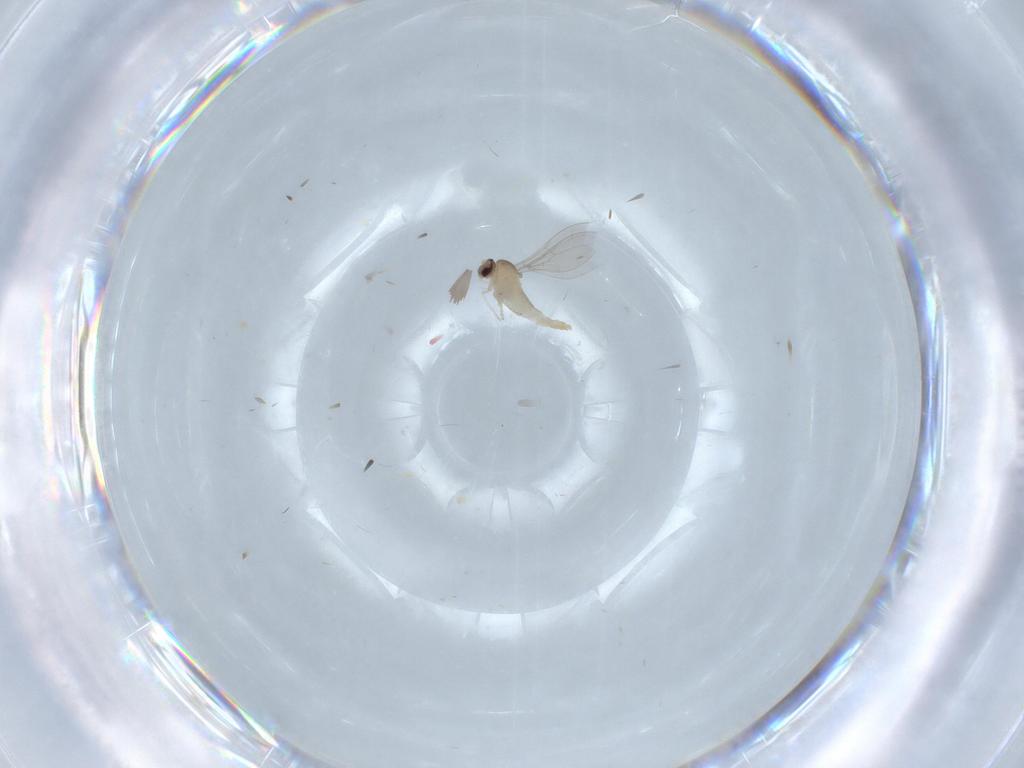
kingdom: Animalia
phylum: Arthropoda
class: Insecta
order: Diptera
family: Cecidomyiidae
